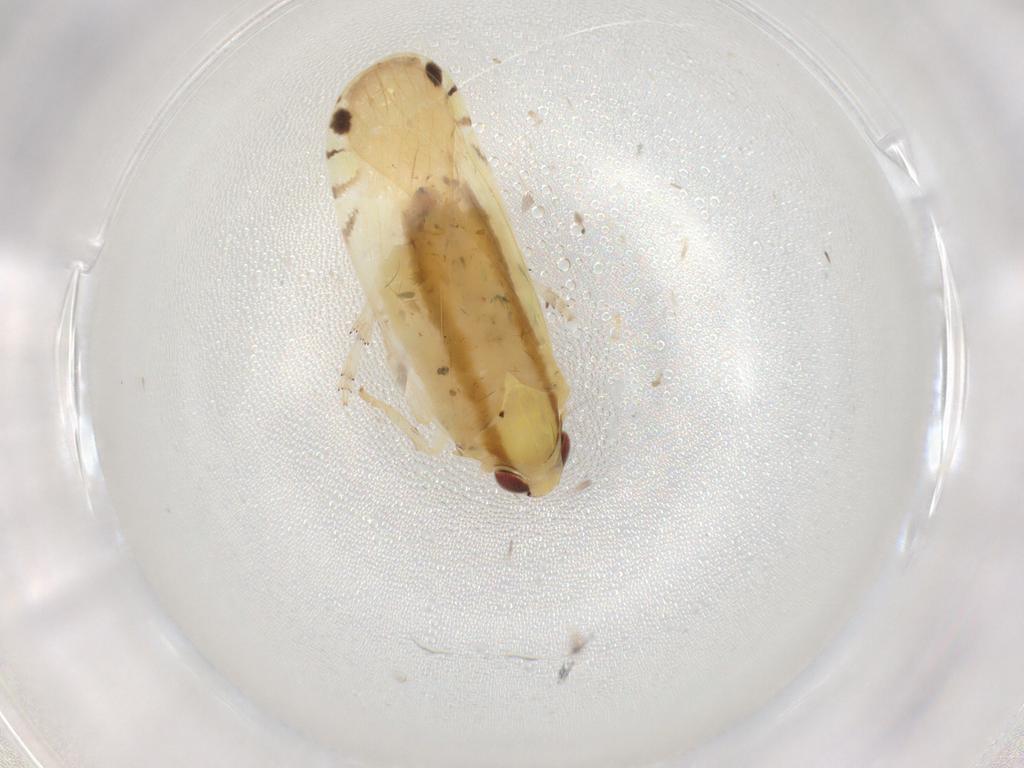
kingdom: Animalia
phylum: Arthropoda
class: Insecta
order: Hemiptera
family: Achilidae
